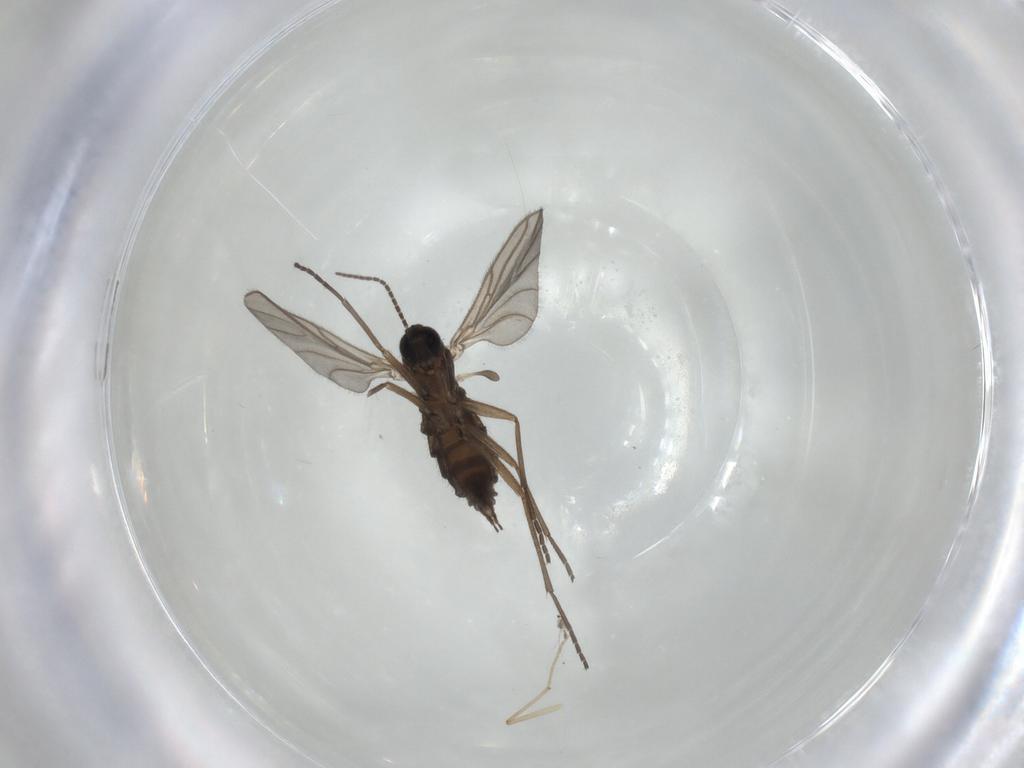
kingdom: Animalia
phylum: Arthropoda
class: Insecta
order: Diptera
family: Sciaridae
